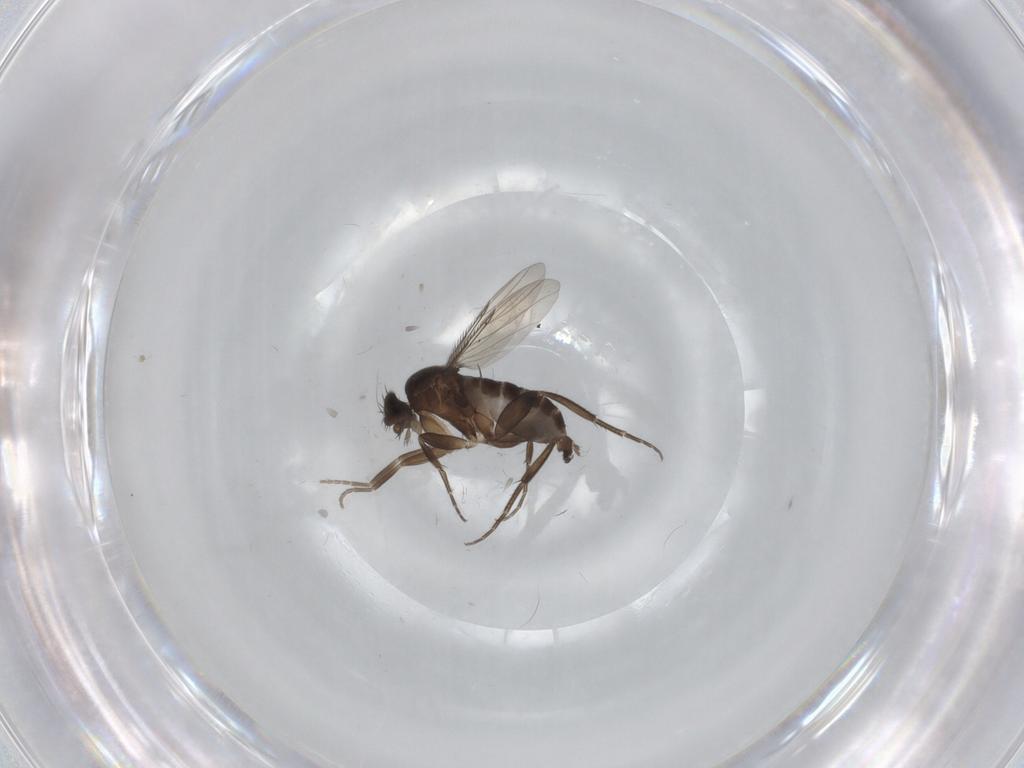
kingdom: Animalia
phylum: Arthropoda
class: Insecta
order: Diptera
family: Phoridae
